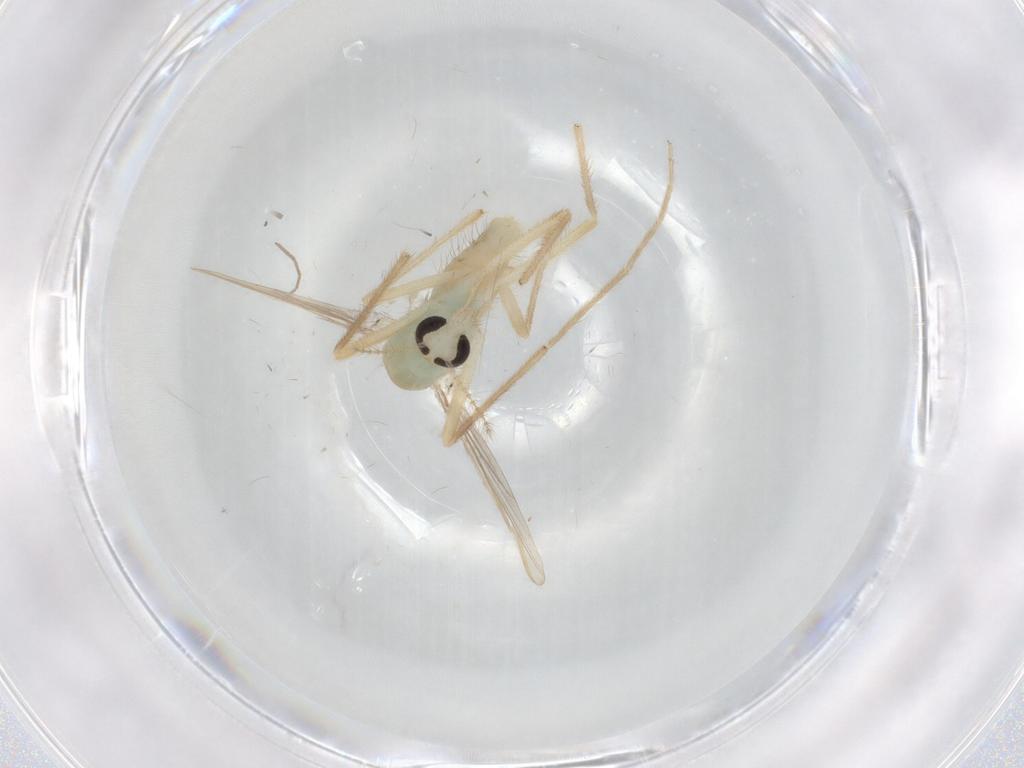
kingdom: Animalia
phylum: Arthropoda
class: Insecta
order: Diptera
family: Chironomidae
